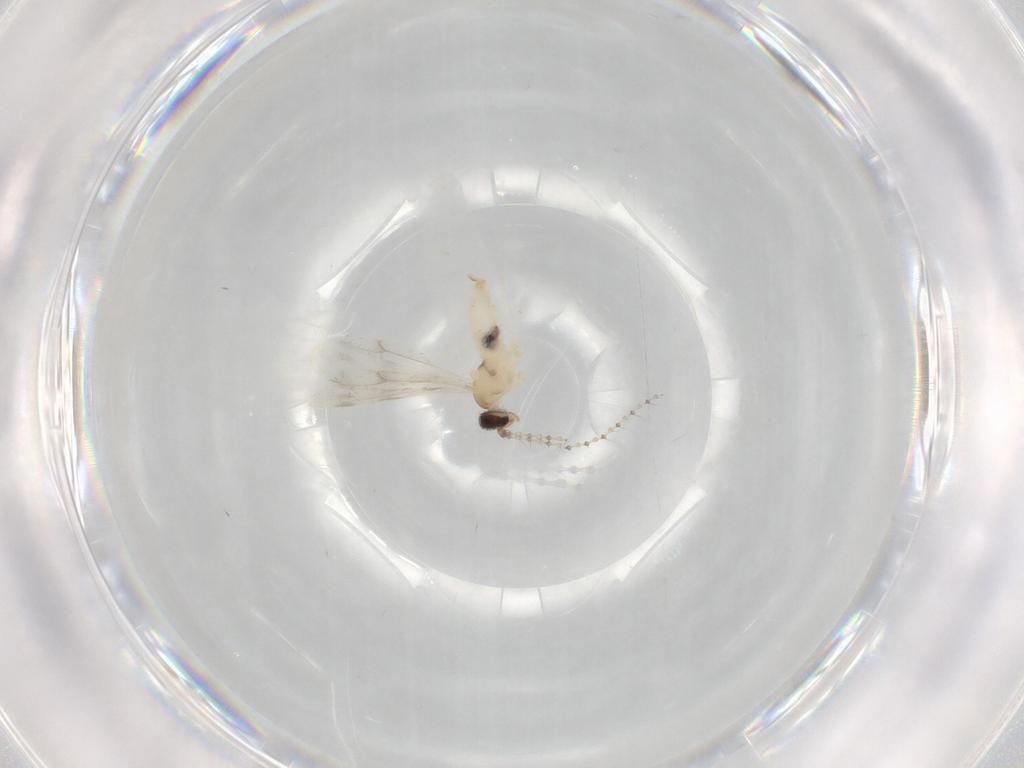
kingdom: Animalia
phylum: Arthropoda
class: Insecta
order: Diptera
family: Cecidomyiidae
